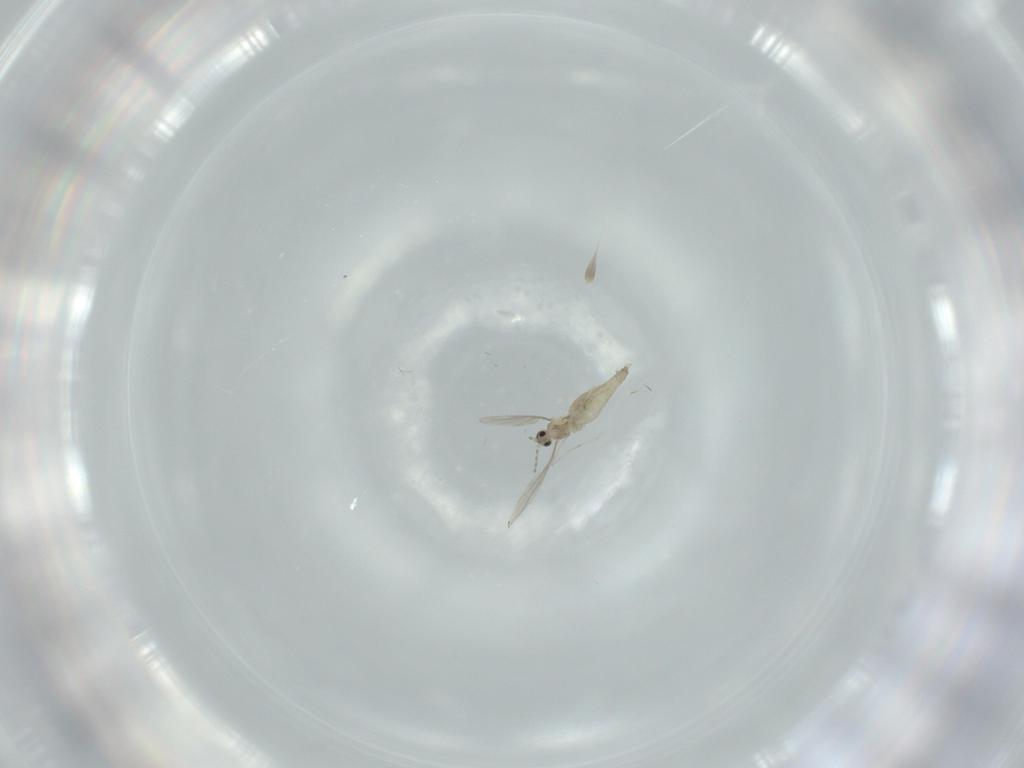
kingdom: Animalia
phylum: Arthropoda
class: Insecta
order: Diptera
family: Cecidomyiidae
